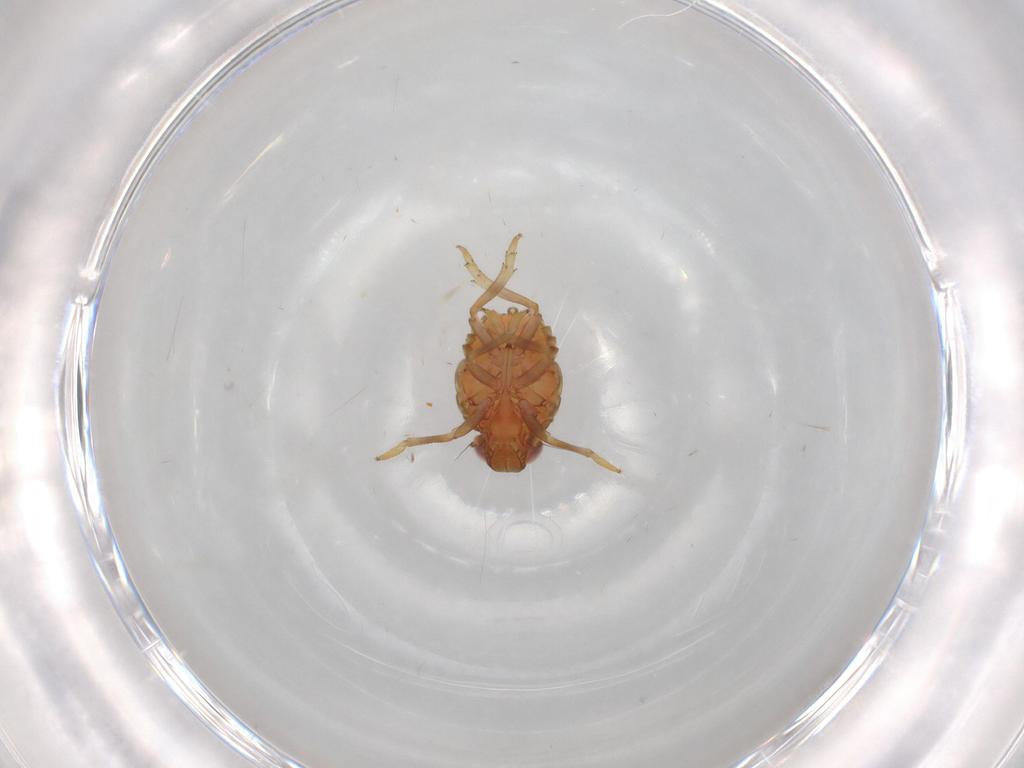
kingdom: Animalia
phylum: Arthropoda
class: Insecta
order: Hemiptera
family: Issidae
